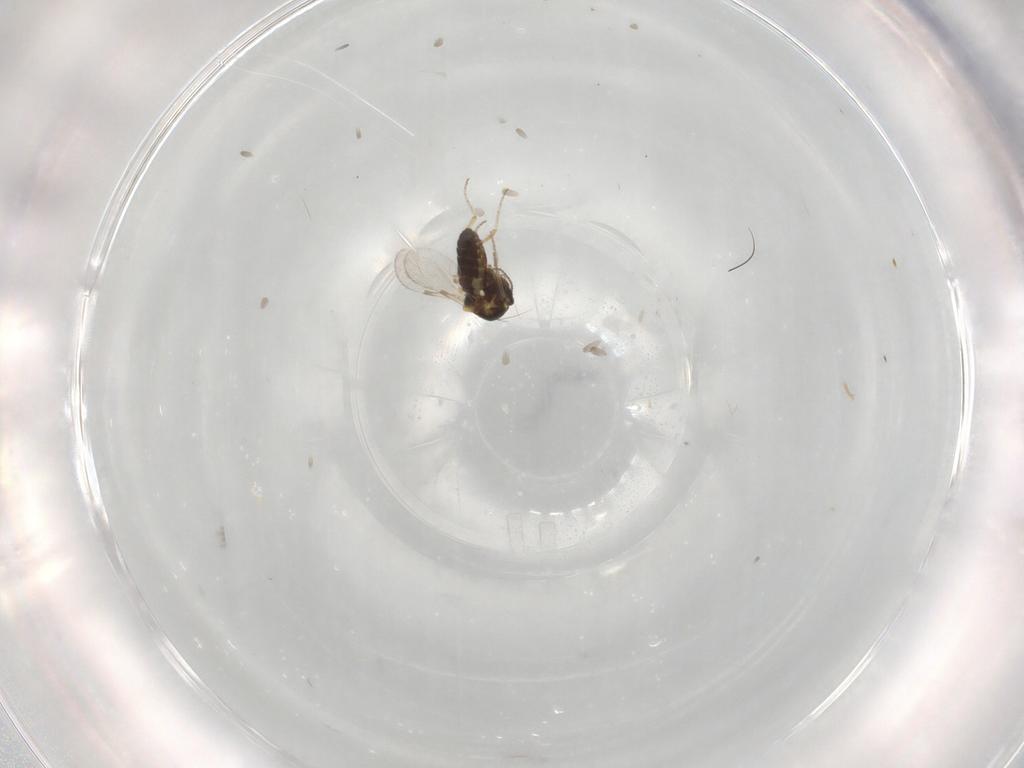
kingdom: Animalia
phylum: Arthropoda
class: Insecta
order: Diptera
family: Ceratopogonidae
